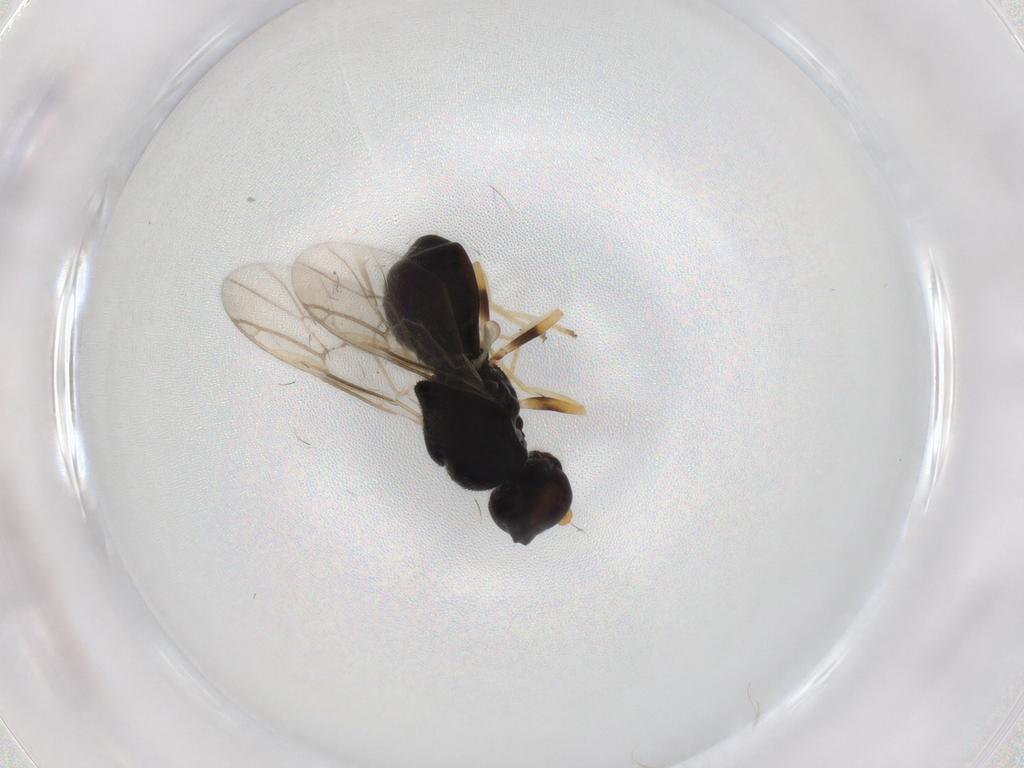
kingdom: Animalia
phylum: Arthropoda
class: Insecta
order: Diptera
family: Stratiomyidae
